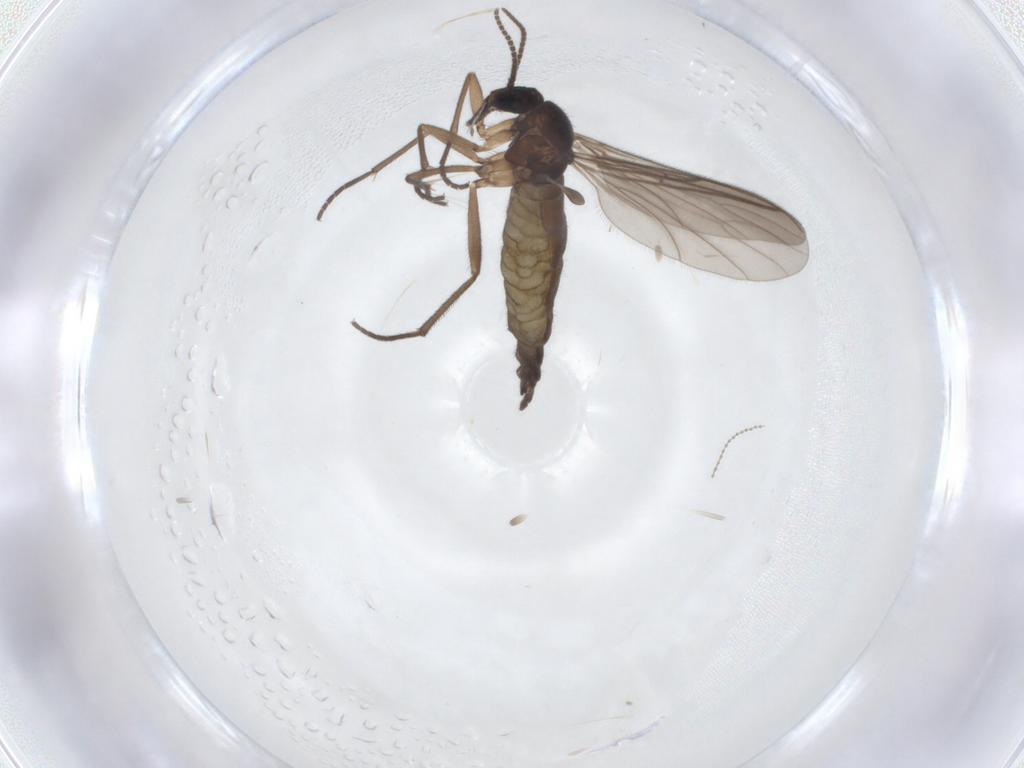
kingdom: Animalia
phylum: Arthropoda
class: Insecta
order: Diptera
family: Sciaridae
